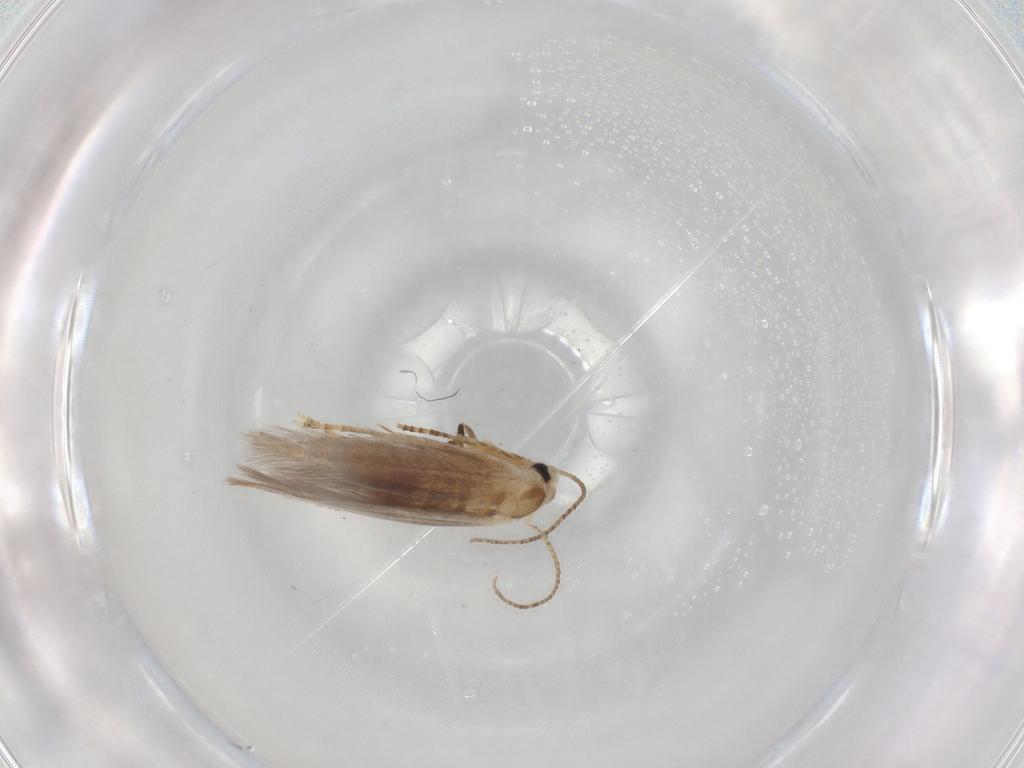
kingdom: Animalia
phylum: Arthropoda
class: Insecta
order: Lepidoptera
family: Bucculatricidae
